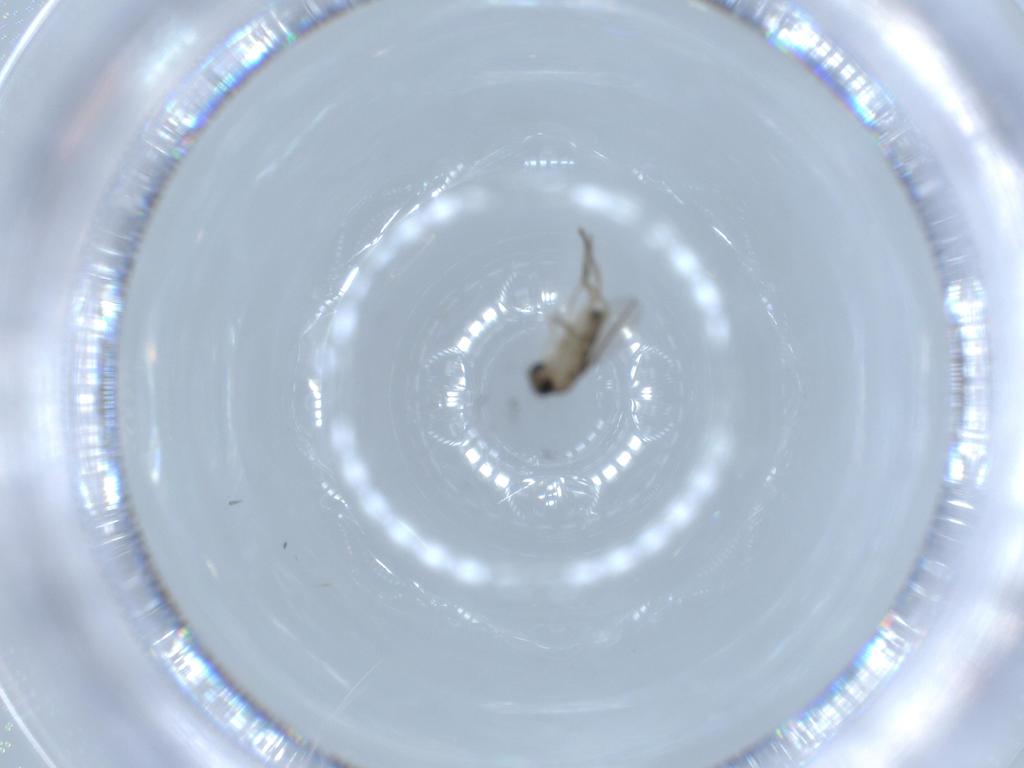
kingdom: Animalia
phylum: Arthropoda
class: Insecta
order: Diptera
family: Phoridae
